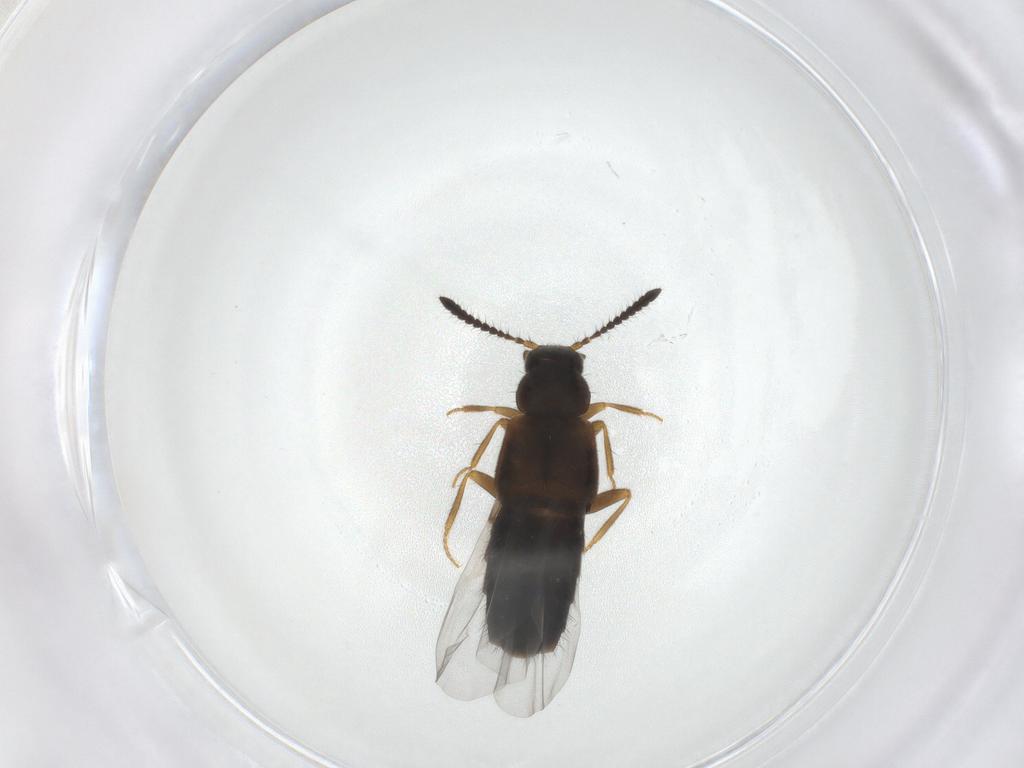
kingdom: Animalia
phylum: Arthropoda
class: Insecta
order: Coleoptera
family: Staphylinidae
